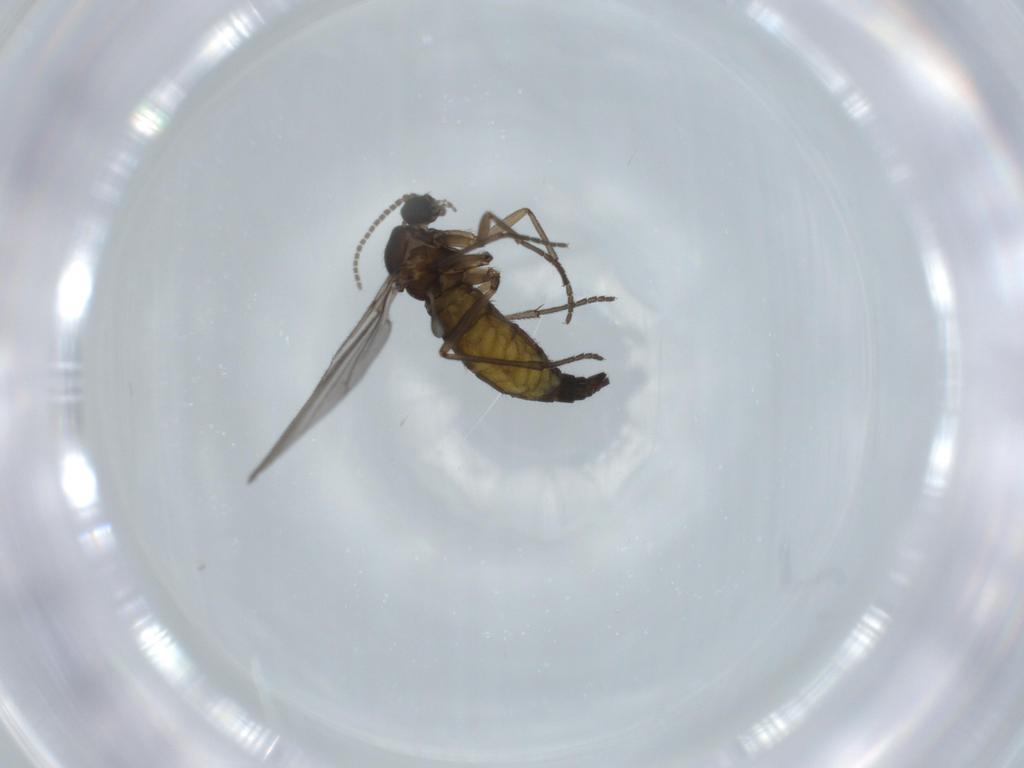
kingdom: Animalia
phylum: Arthropoda
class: Insecta
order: Diptera
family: Sciaridae
